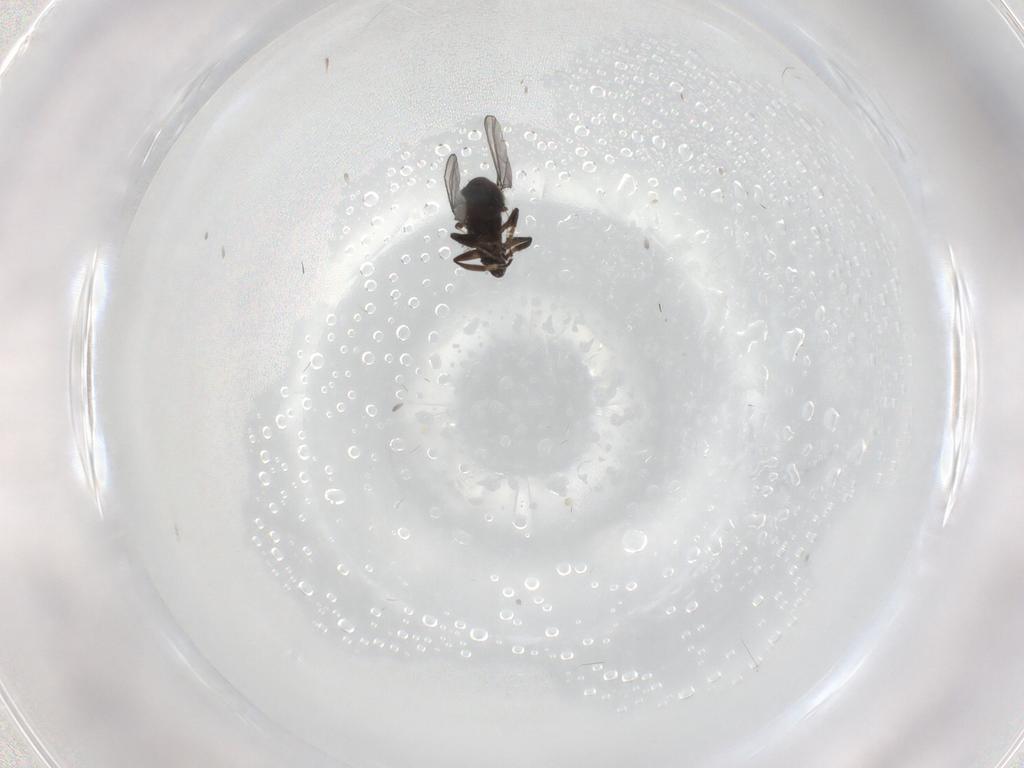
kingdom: Animalia
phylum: Arthropoda
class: Insecta
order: Diptera
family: Dolichopodidae
